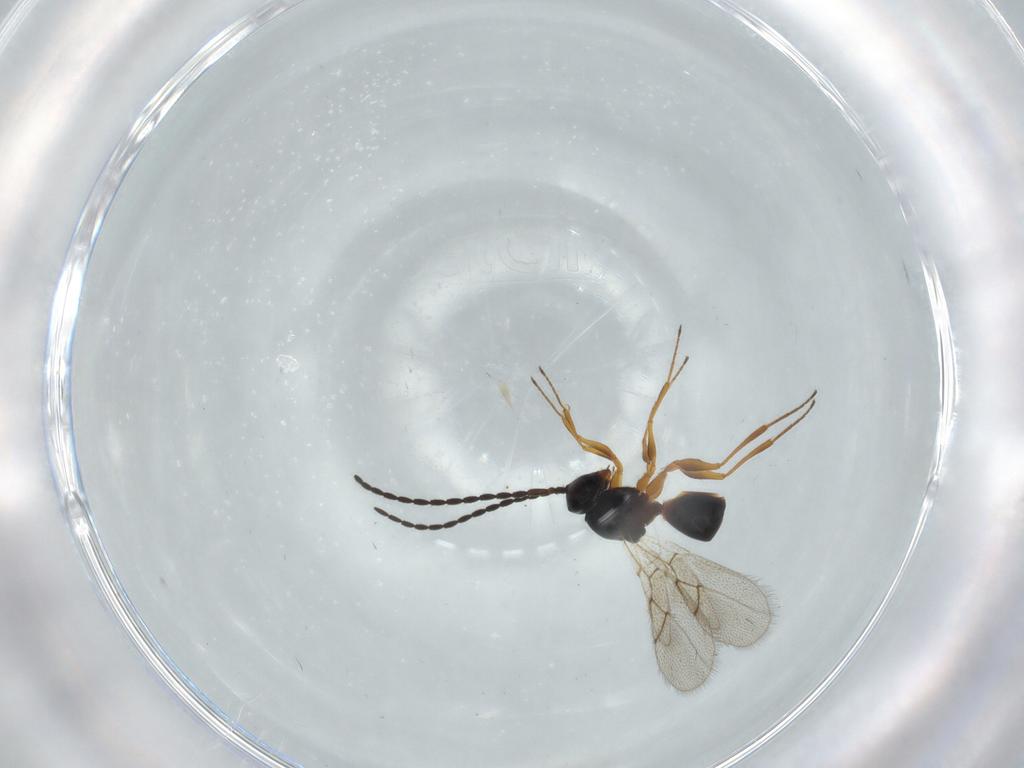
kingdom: Animalia
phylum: Arthropoda
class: Insecta
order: Hymenoptera
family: Figitidae
